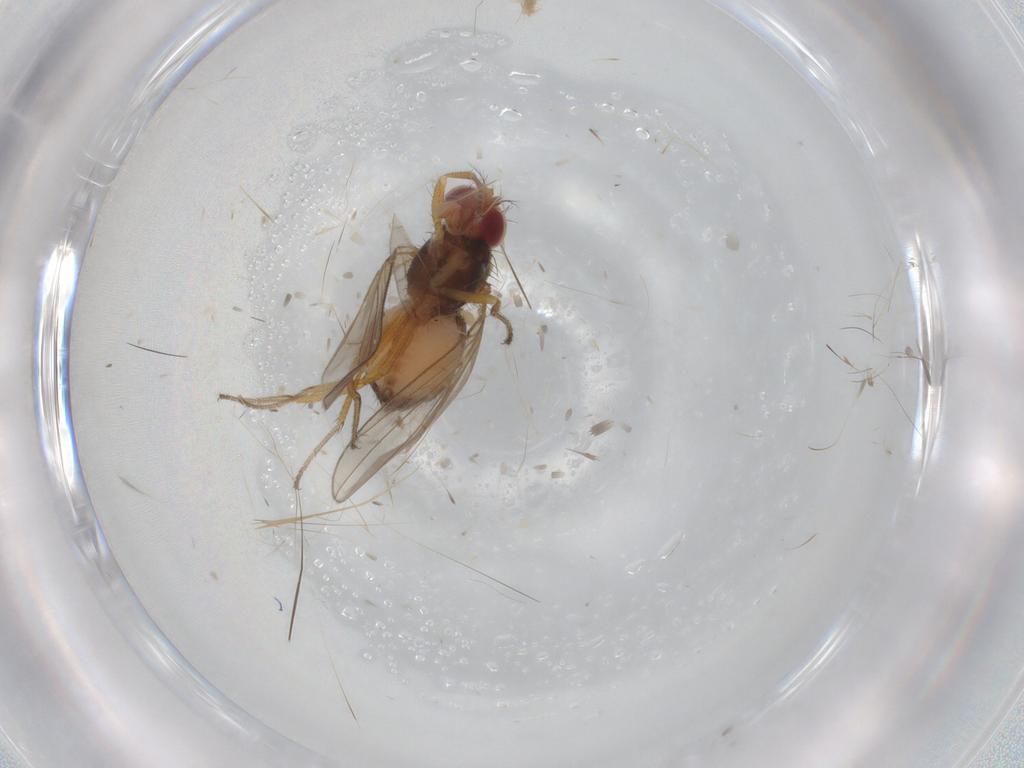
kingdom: Animalia
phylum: Arthropoda
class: Insecta
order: Diptera
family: Drosophilidae
